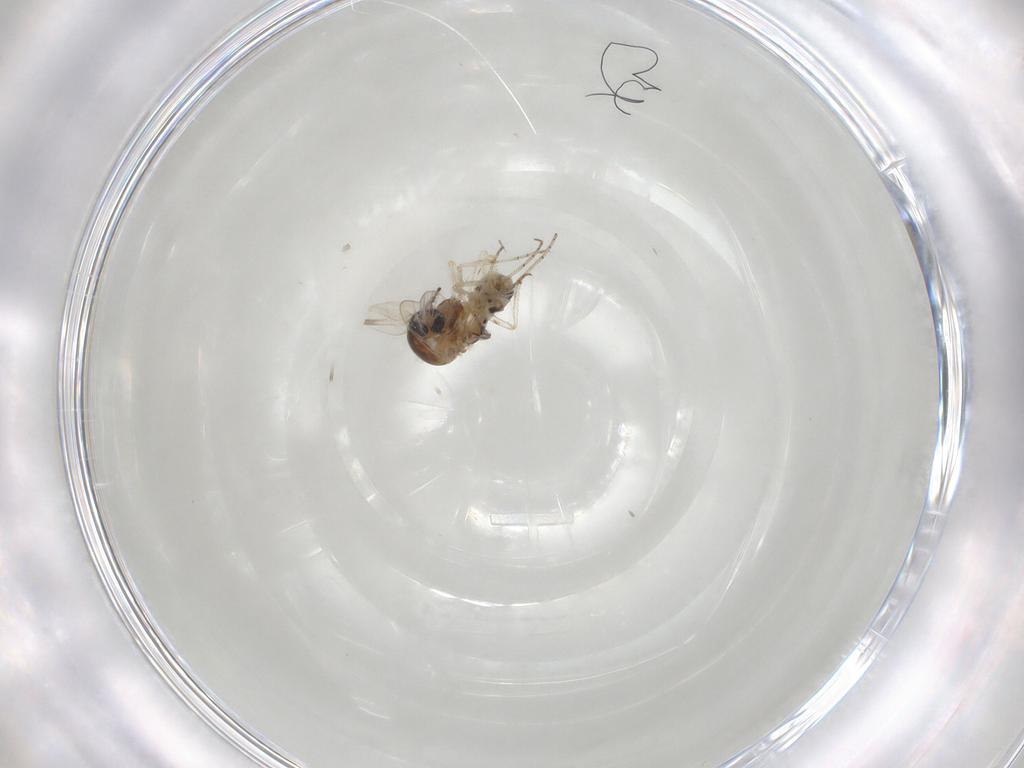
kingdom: Animalia
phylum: Arthropoda
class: Insecta
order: Diptera
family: Ceratopogonidae
